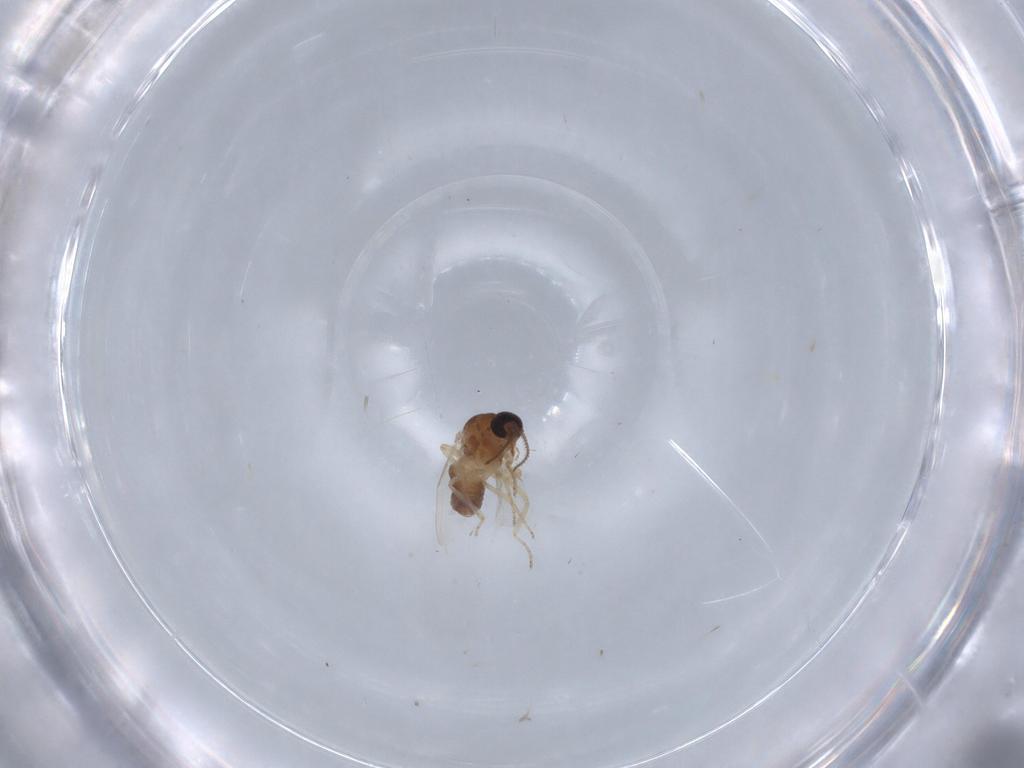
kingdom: Animalia
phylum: Arthropoda
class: Insecta
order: Diptera
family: Ceratopogonidae
